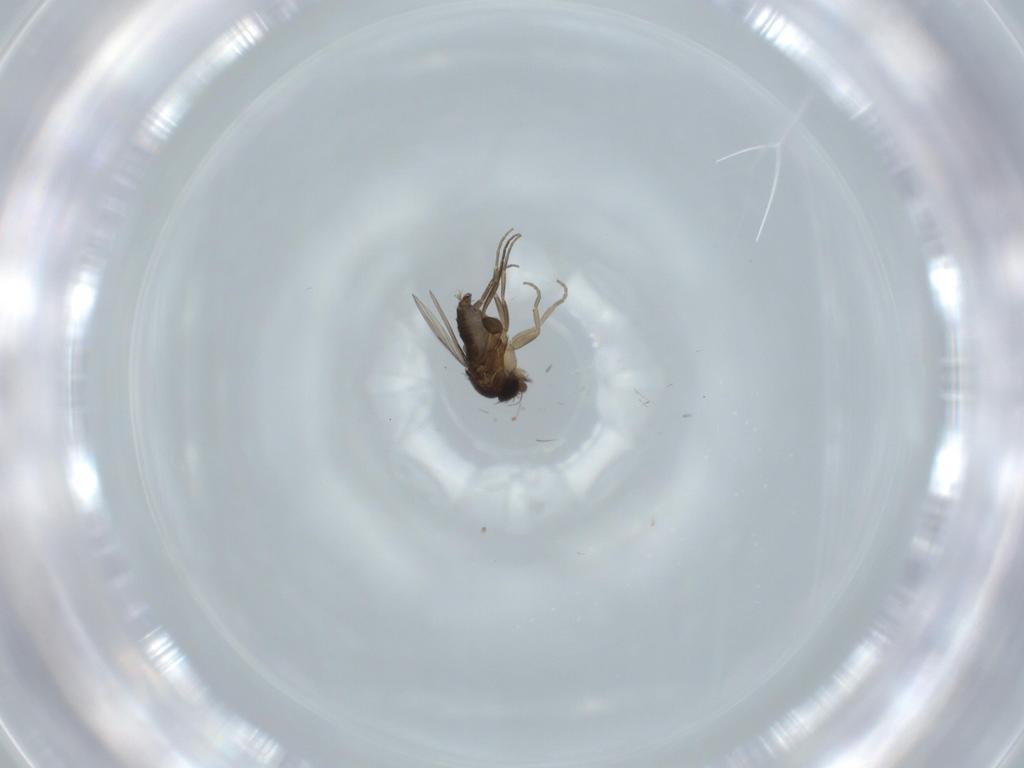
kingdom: Animalia
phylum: Arthropoda
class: Insecta
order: Diptera
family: Phoridae
